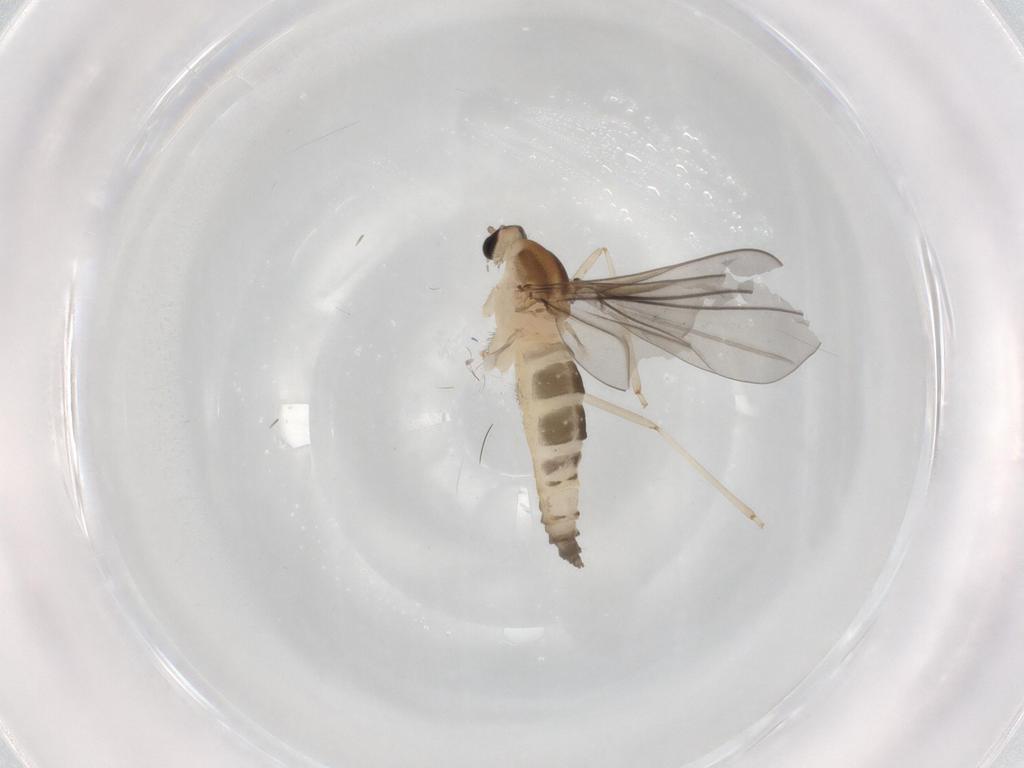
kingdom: Animalia
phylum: Arthropoda
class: Insecta
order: Diptera
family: Cecidomyiidae
